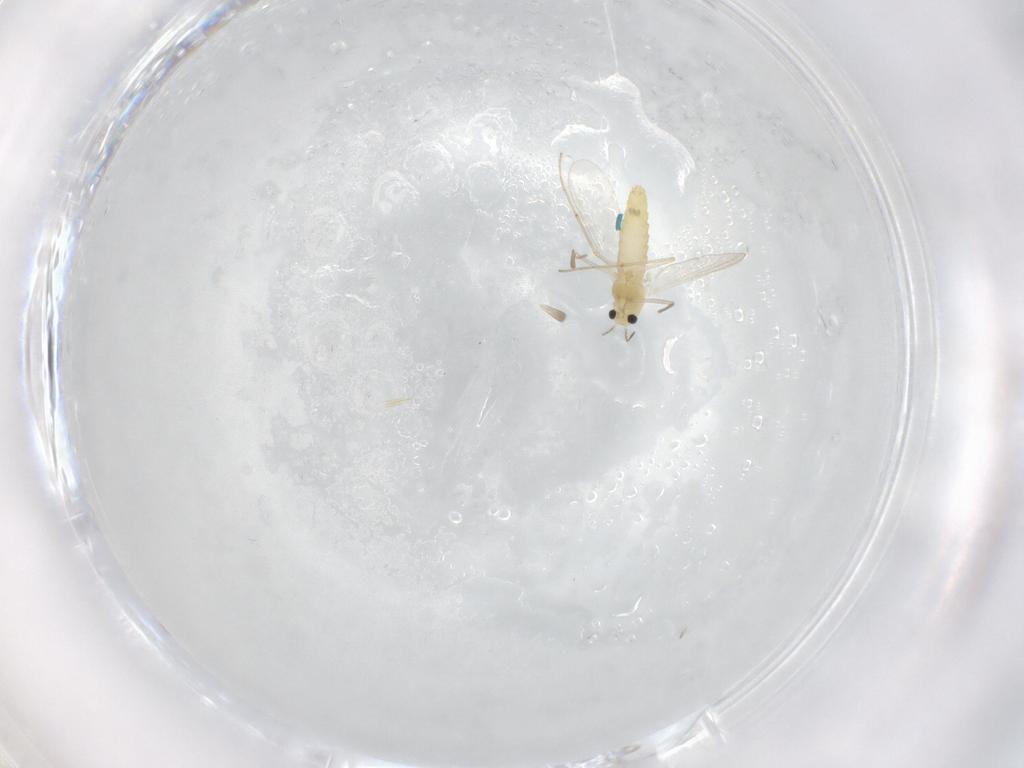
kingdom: Animalia
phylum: Arthropoda
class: Insecta
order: Diptera
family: Chironomidae
